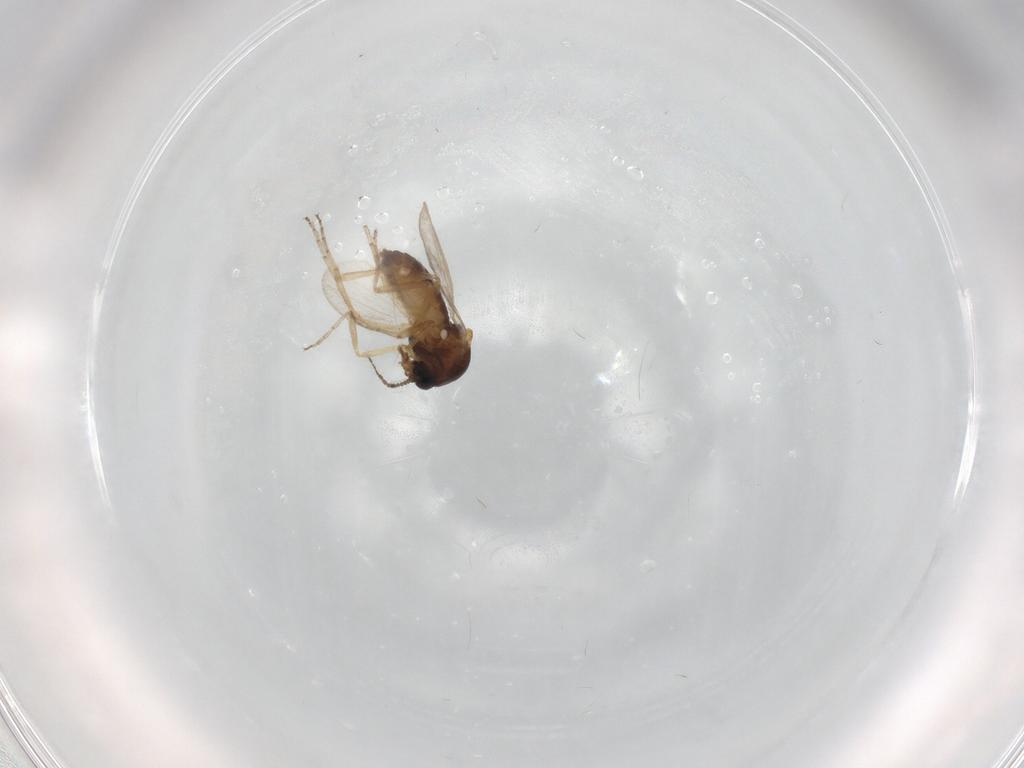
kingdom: Animalia
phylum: Arthropoda
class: Insecta
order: Diptera
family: Ceratopogonidae
